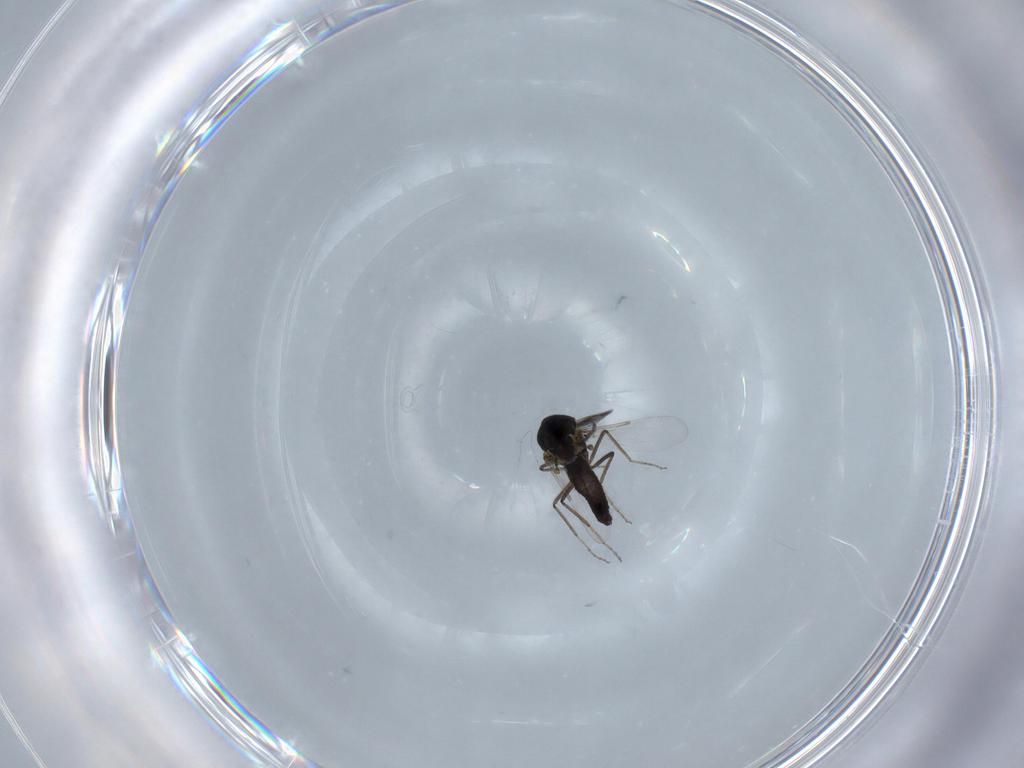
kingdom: Animalia
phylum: Arthropoda
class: Insecta
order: Diptera
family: Ceratopogonidae
